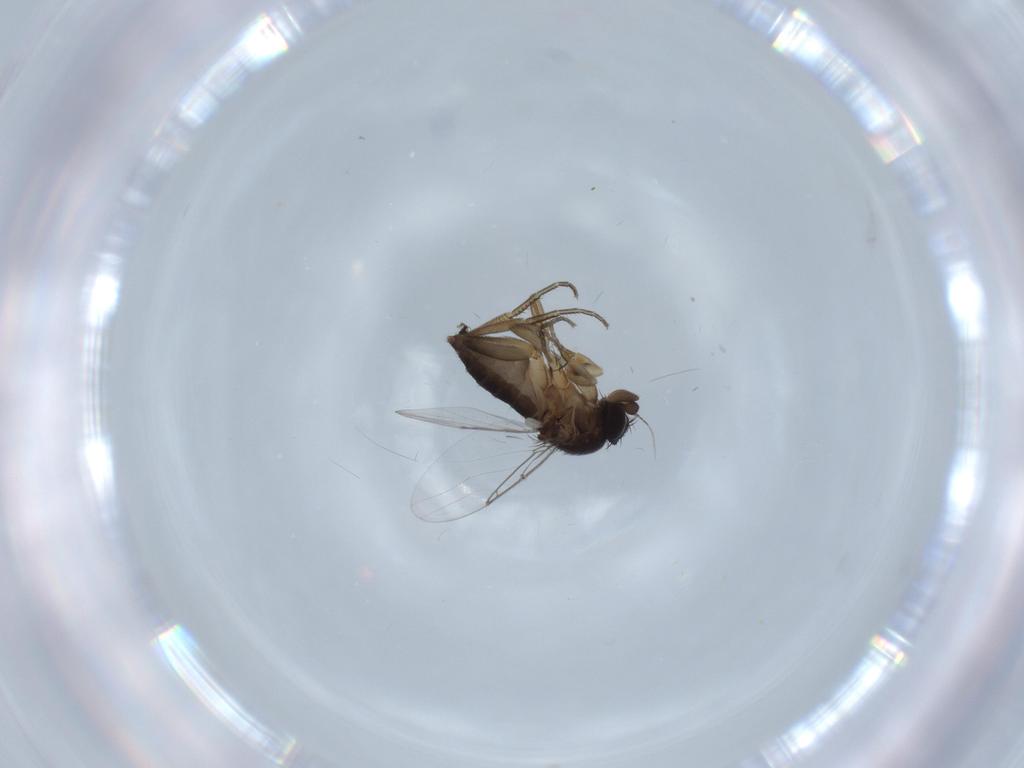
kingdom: Animalia
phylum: Arthropoda
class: Insecta
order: Diptera
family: Phoridae
